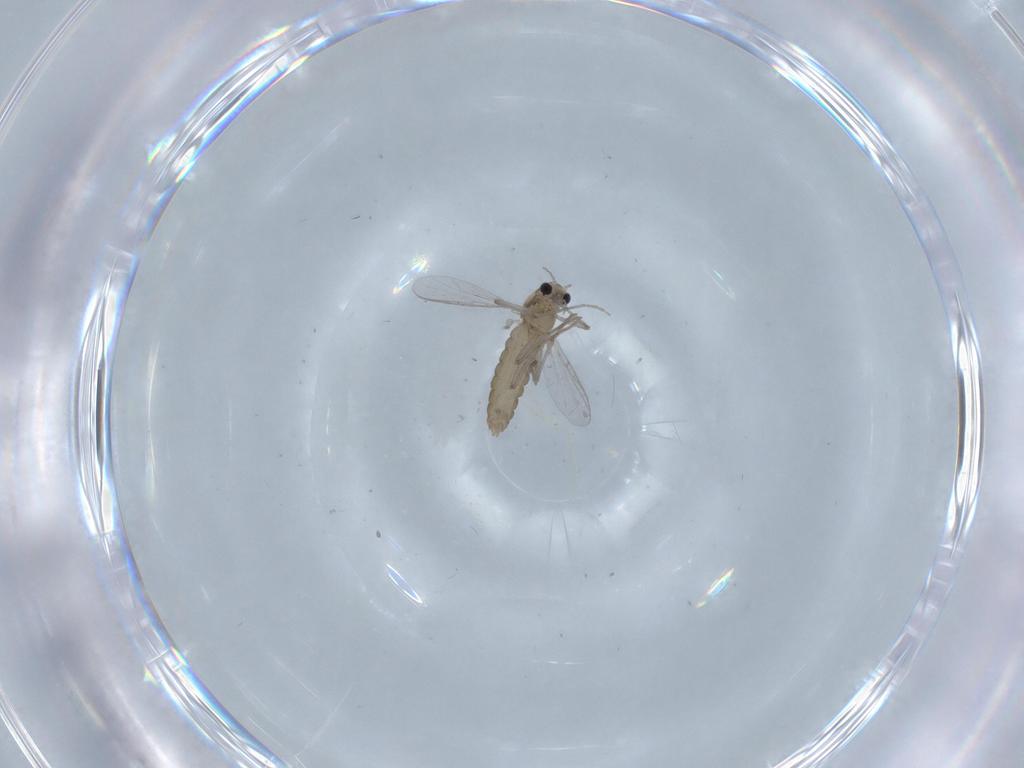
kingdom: Animalia
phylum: Arthropoda
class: Insecta
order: Diptera
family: Chironomidae
